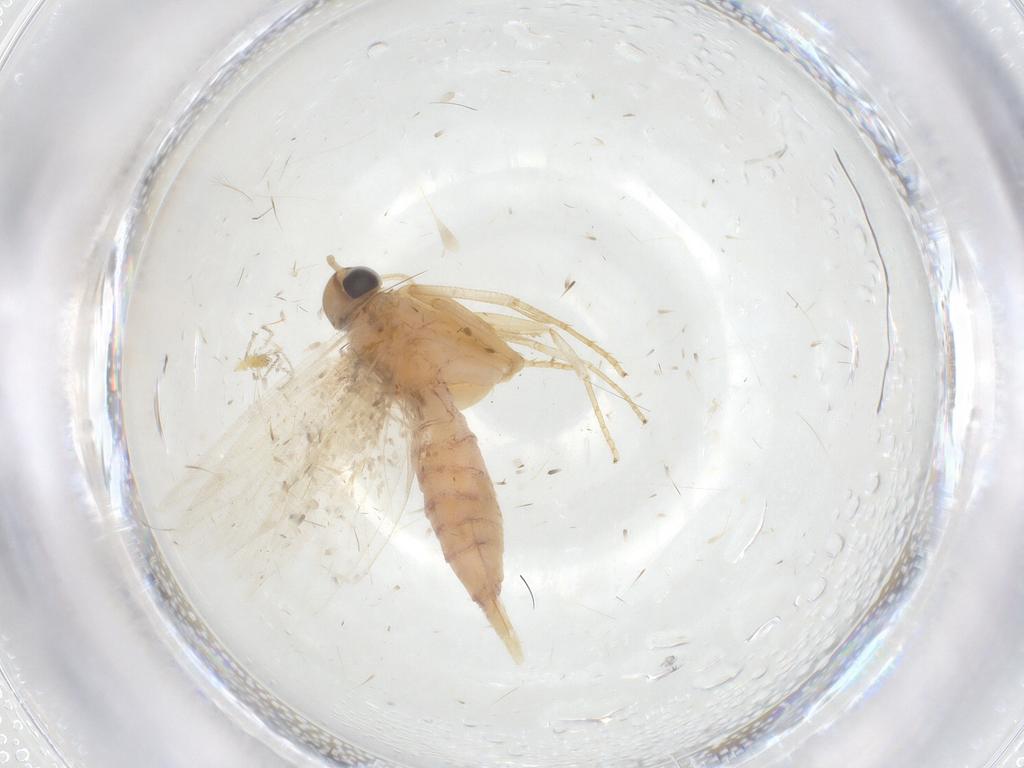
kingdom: Animalia
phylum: Arthropoda
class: Insecta
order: Lepidoptera
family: Gelechiidae
